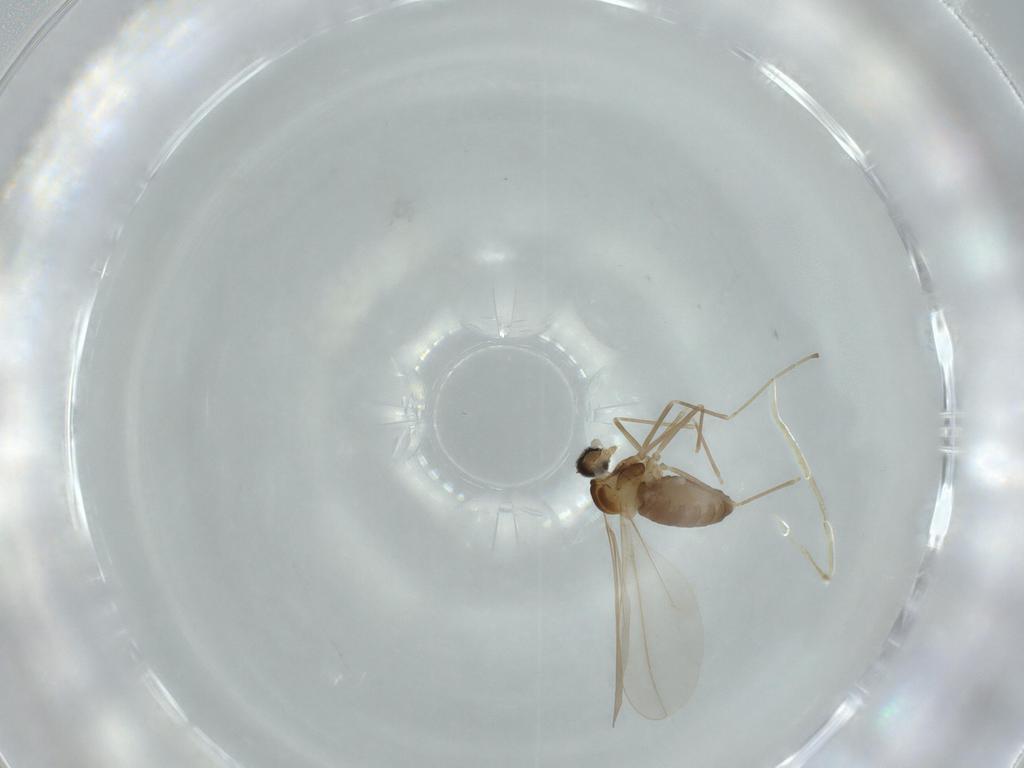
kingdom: Animalia
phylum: Arthropoda
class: Insecta
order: Diptera
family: Cecidomyiidae
